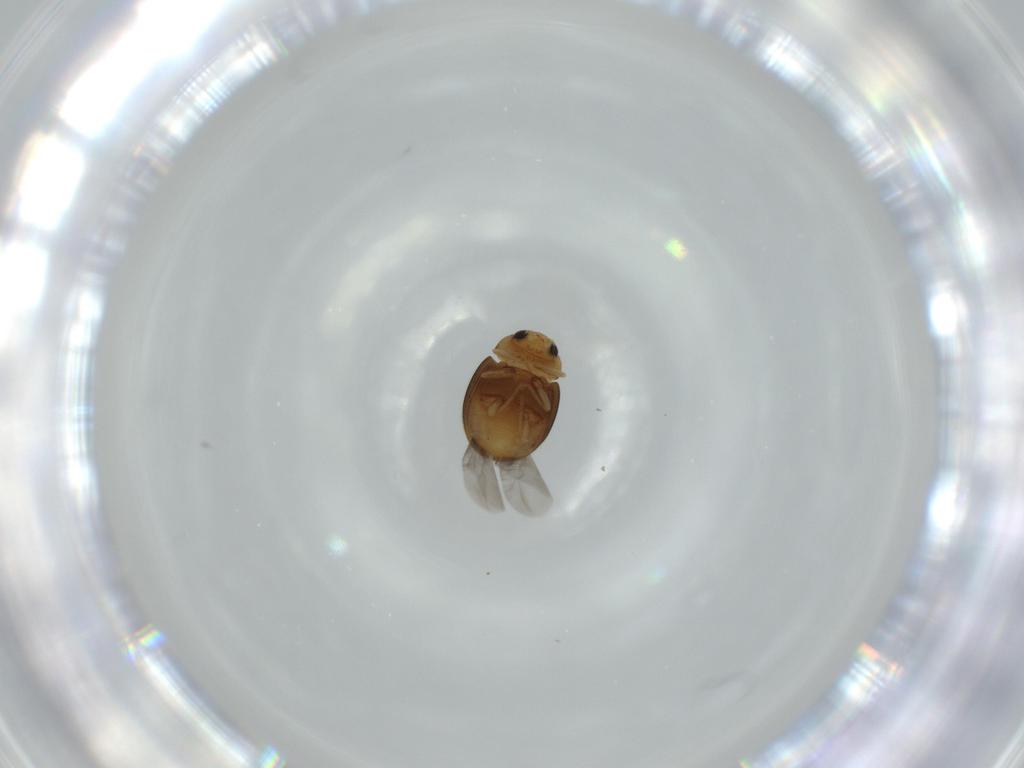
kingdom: Animalia
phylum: Arthropoda
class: Insecta
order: Coleoptera
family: Coccinellidae
